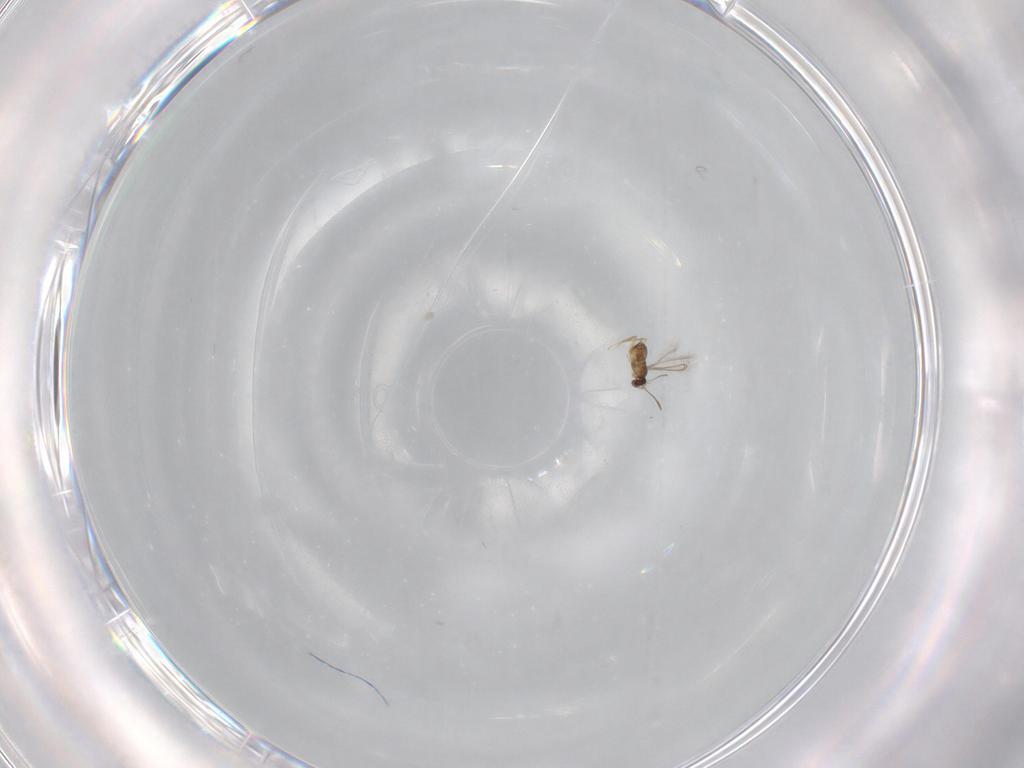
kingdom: Animalia
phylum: Arthropoda
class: Insecta
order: Hymenoptera
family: Mymaridae
